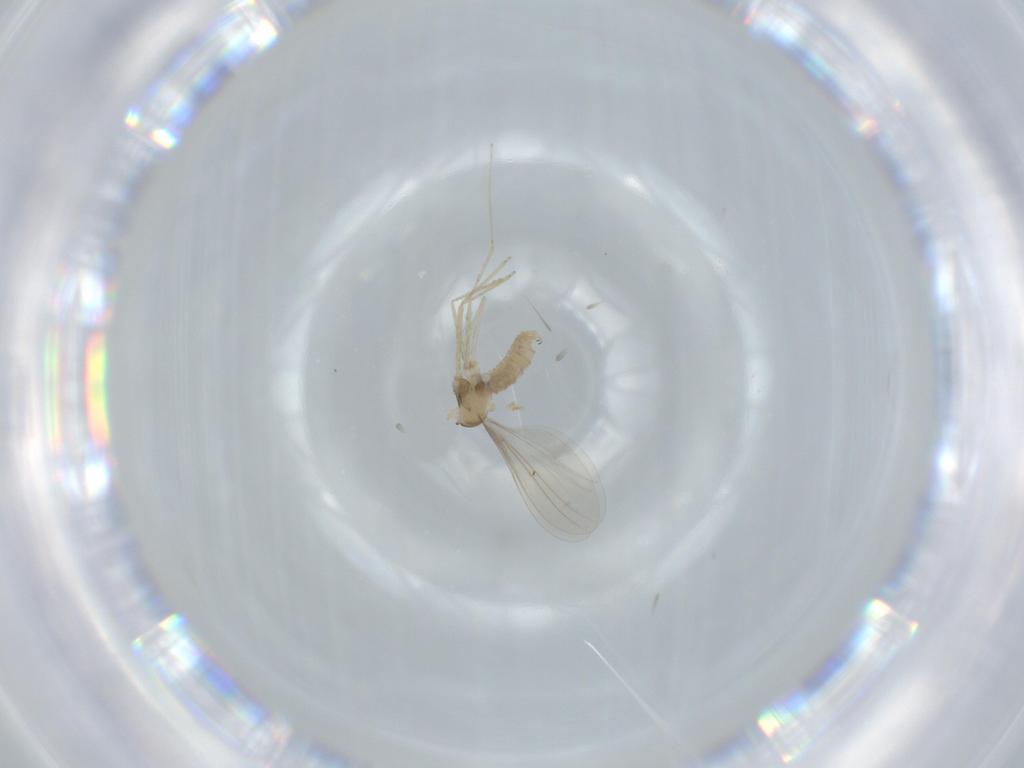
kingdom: Animalia
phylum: Arthropoda
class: Insecta
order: Diptera
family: Cecidomyiidae
